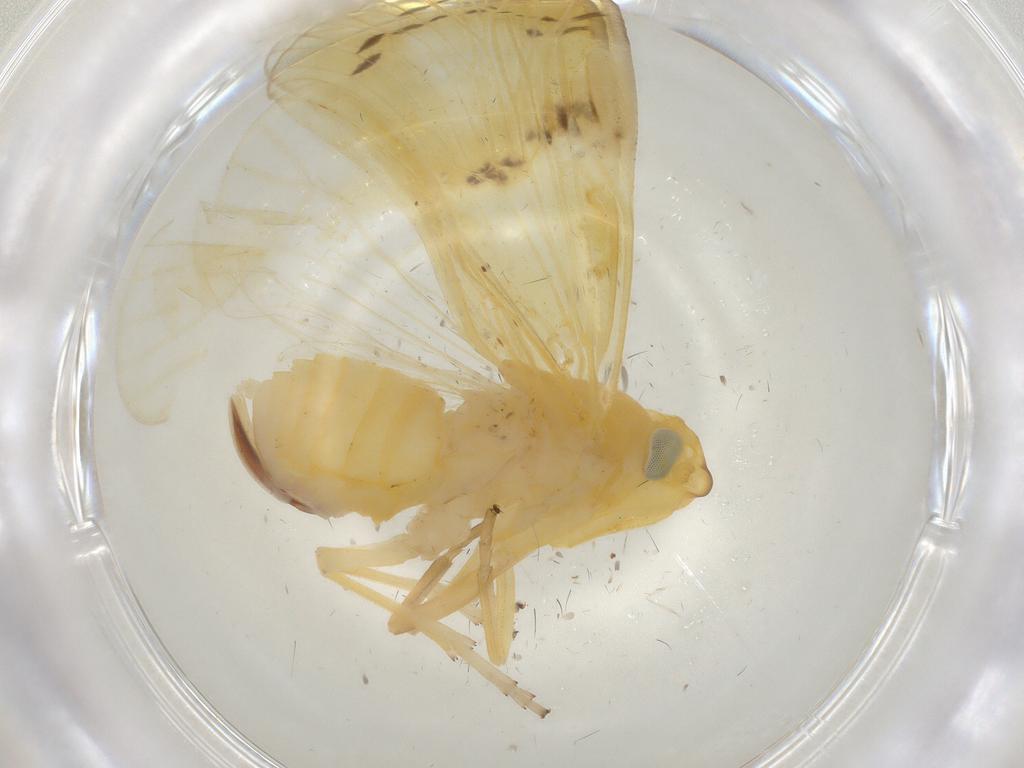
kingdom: Animalia
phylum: Arthropoda
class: Insecta
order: Hemiptera
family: Cixiidae
